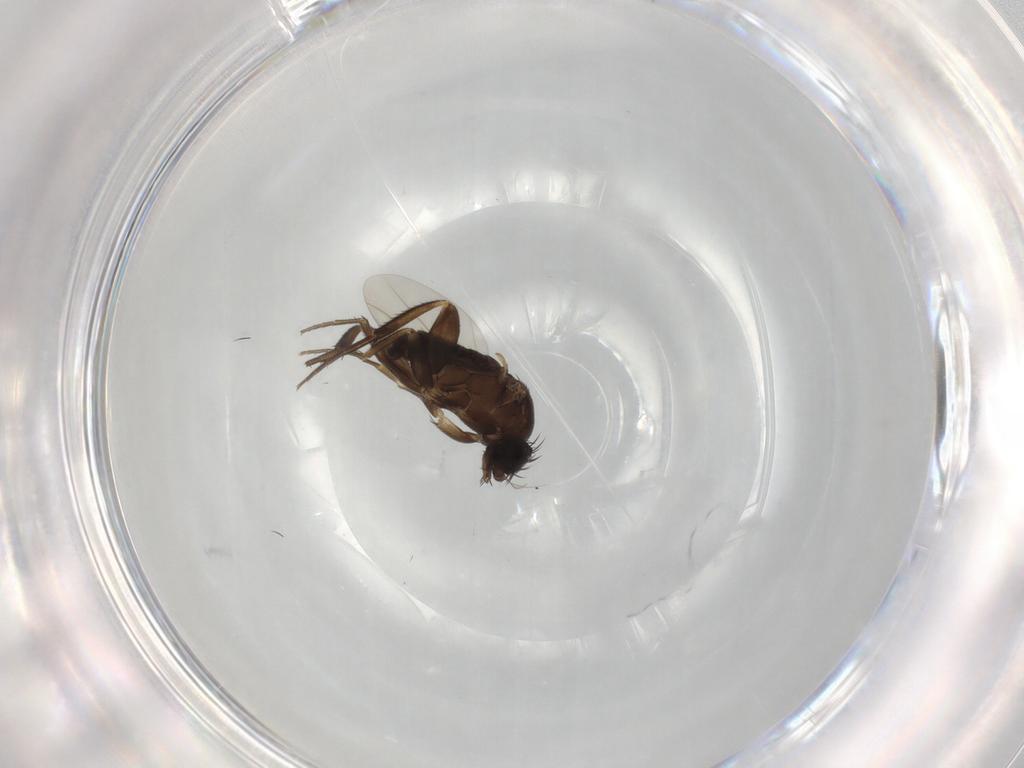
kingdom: Animalia
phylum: Arthropoda
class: Insecta
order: Diptera
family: Phoridae
